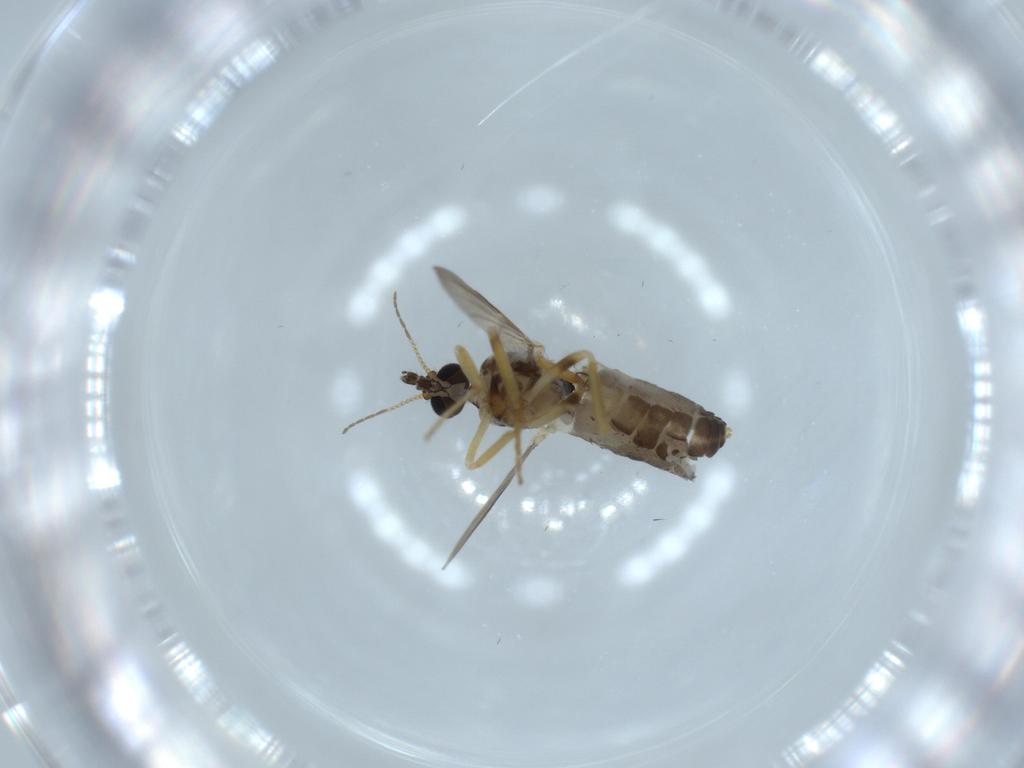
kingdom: Animalia
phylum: Arthropoda
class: Insecta
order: Diptera
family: Ceratopogonidae
